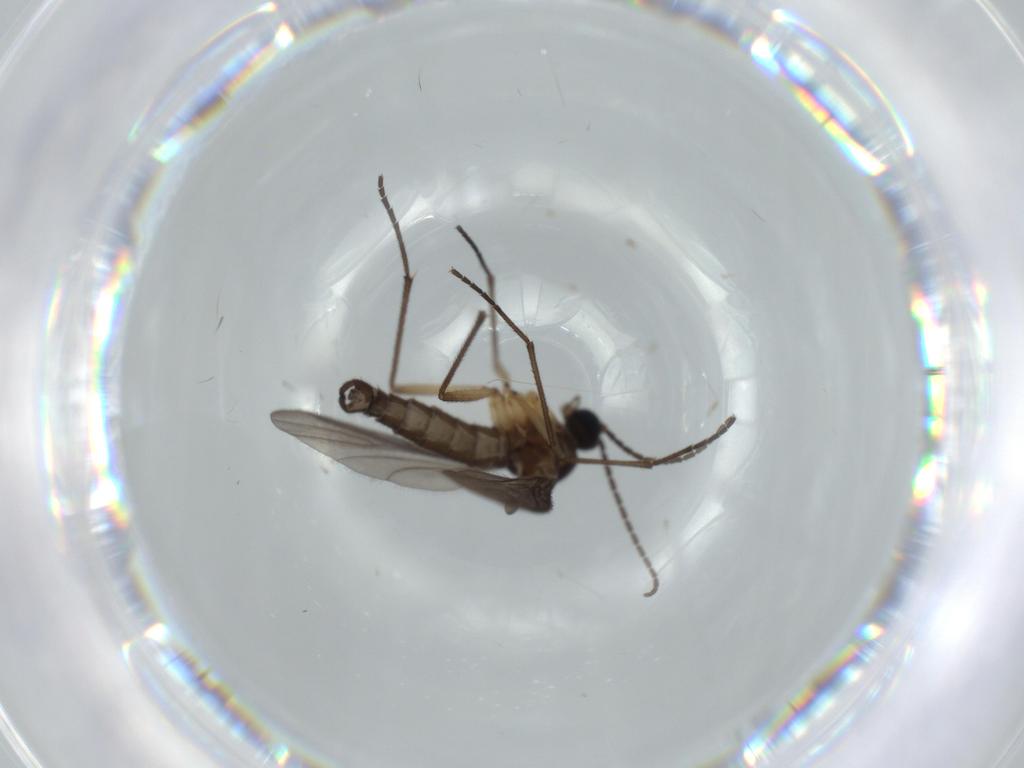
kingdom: Animalia
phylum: Arthropoda
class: Insecta
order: Diptera
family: Sciaridae
